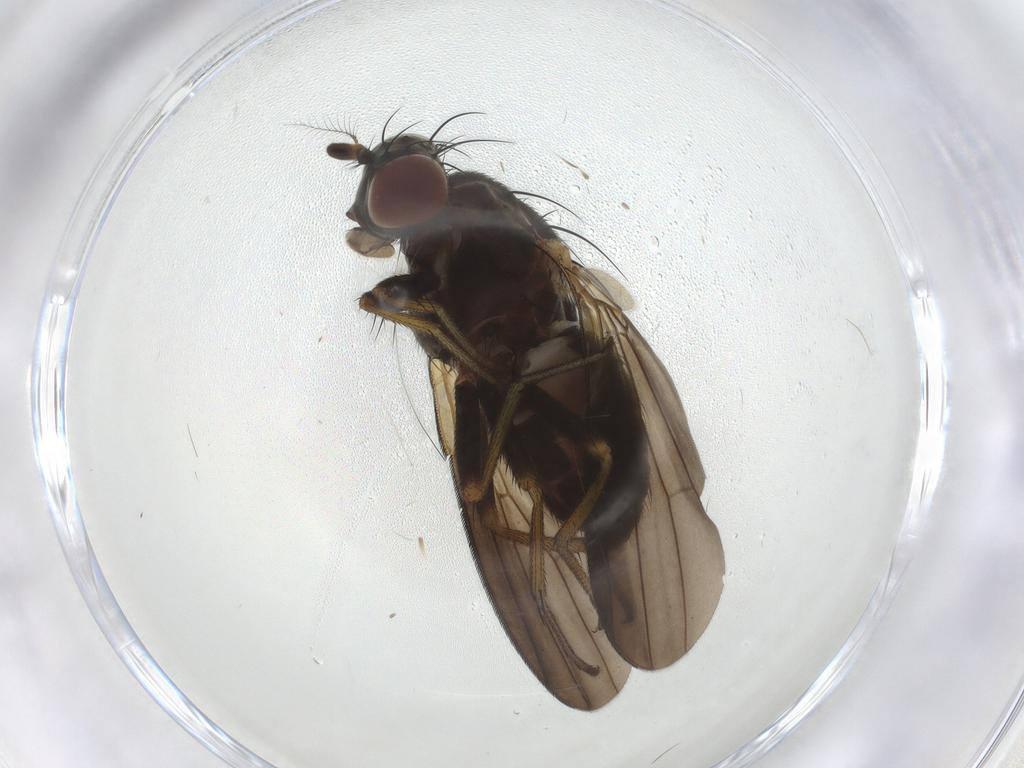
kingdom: Animalia
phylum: Arthropoda
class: Insecta
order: Diptera
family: Sphaeroceridae
